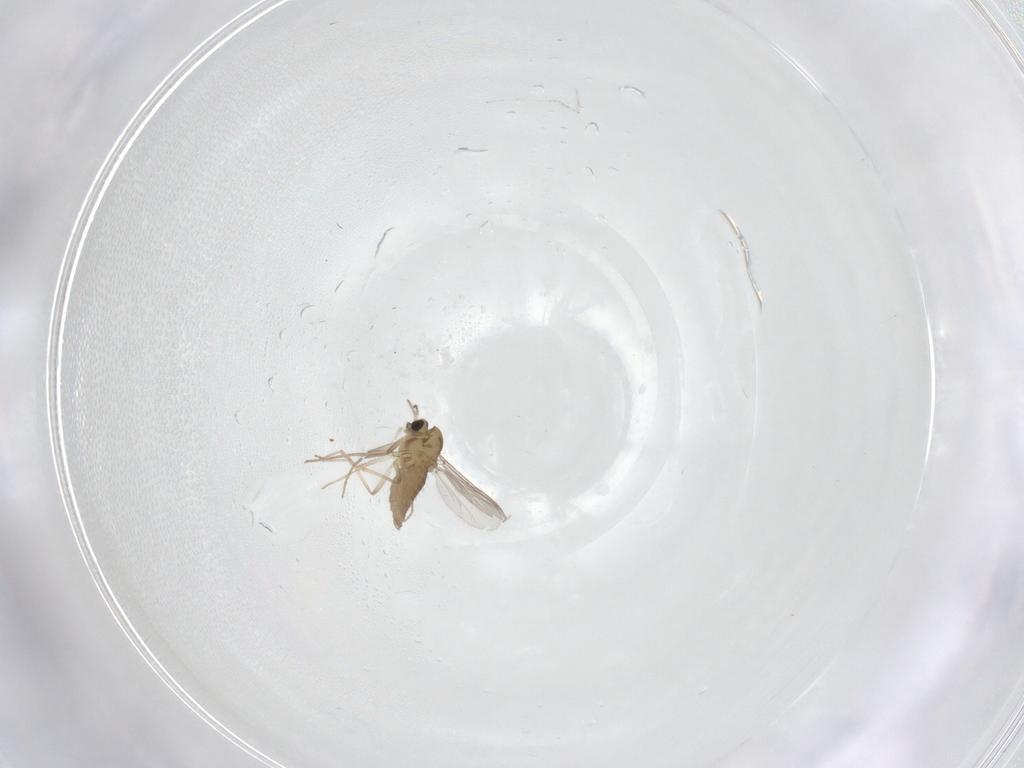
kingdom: Animalia
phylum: Arthropoda
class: Insecta
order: Diptera
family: Chironomidae
